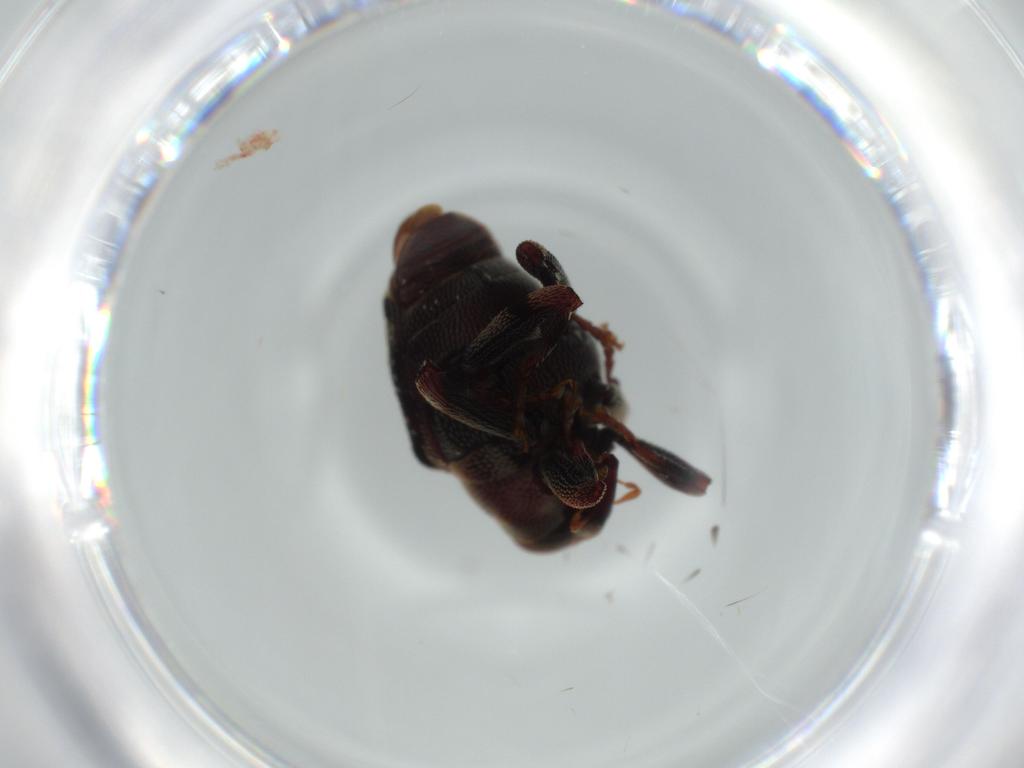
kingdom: Animalia
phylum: Arthropoda
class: Insecta
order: Coleoptera
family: Curculionidae
